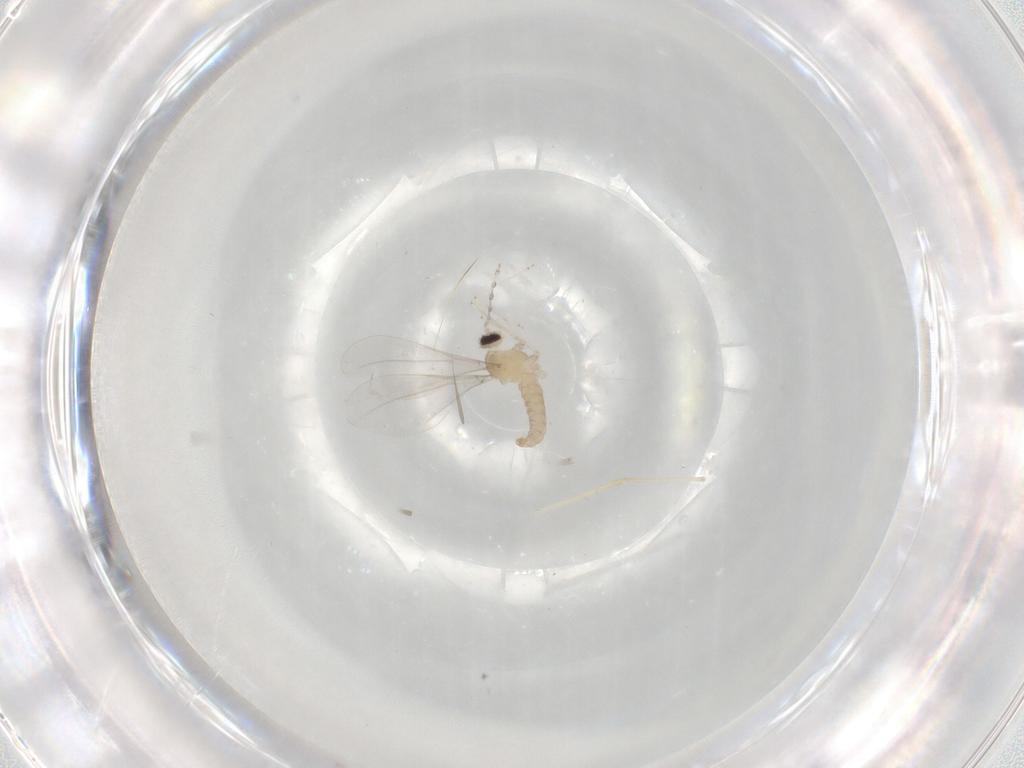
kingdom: Animalia
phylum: Arthropoda
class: Insecta
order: Diptera
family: Cecidomyiidae
